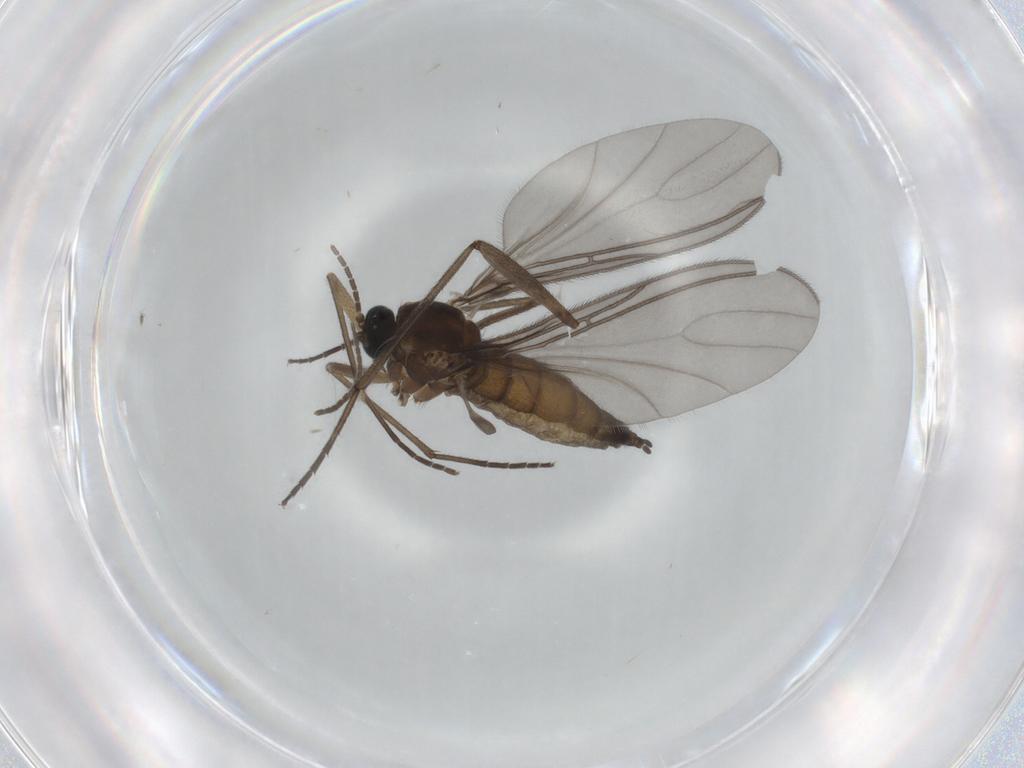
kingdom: Animalia
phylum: Arthropoda
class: Insecta
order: Diptera
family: Sciaridae
